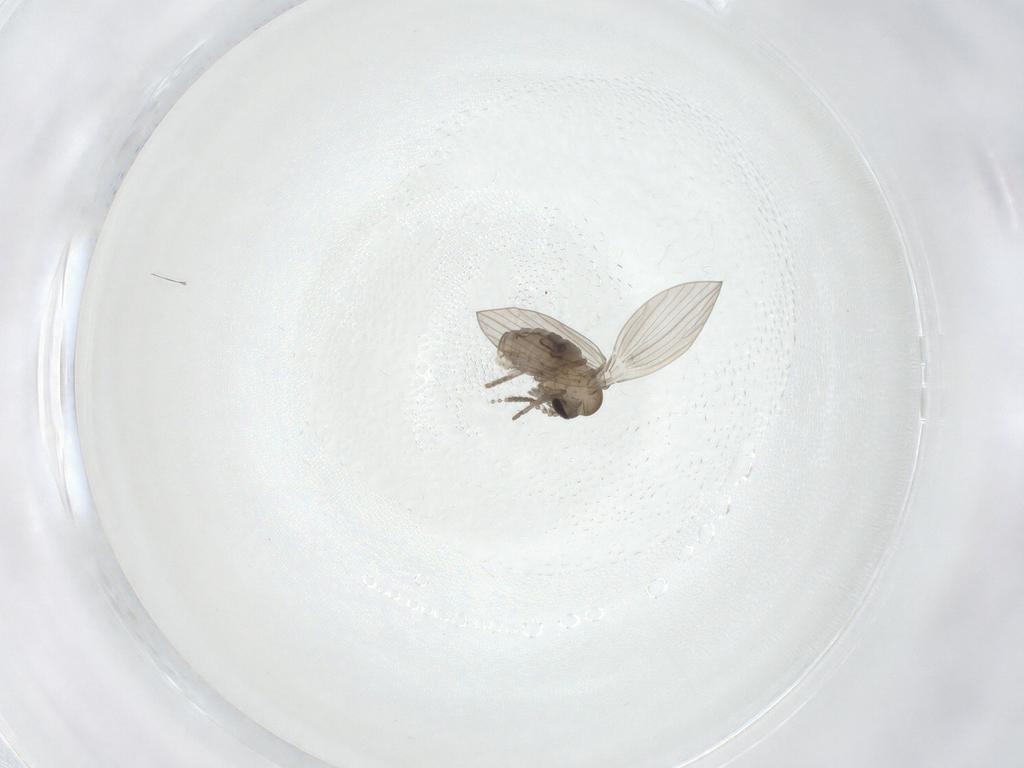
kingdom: Animalia
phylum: Arthropoda
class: Insecta
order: Diptera
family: Psychodidae
